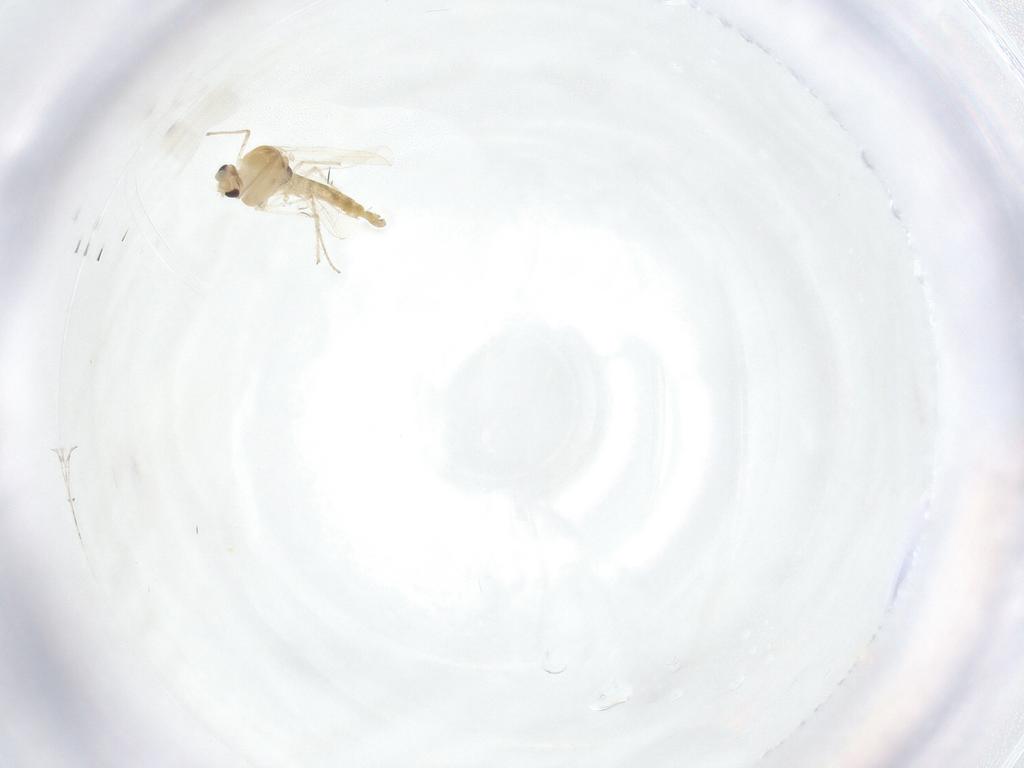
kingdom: Animalia
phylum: Arthropoda
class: Insecta
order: Diptera
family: Chironomidae
